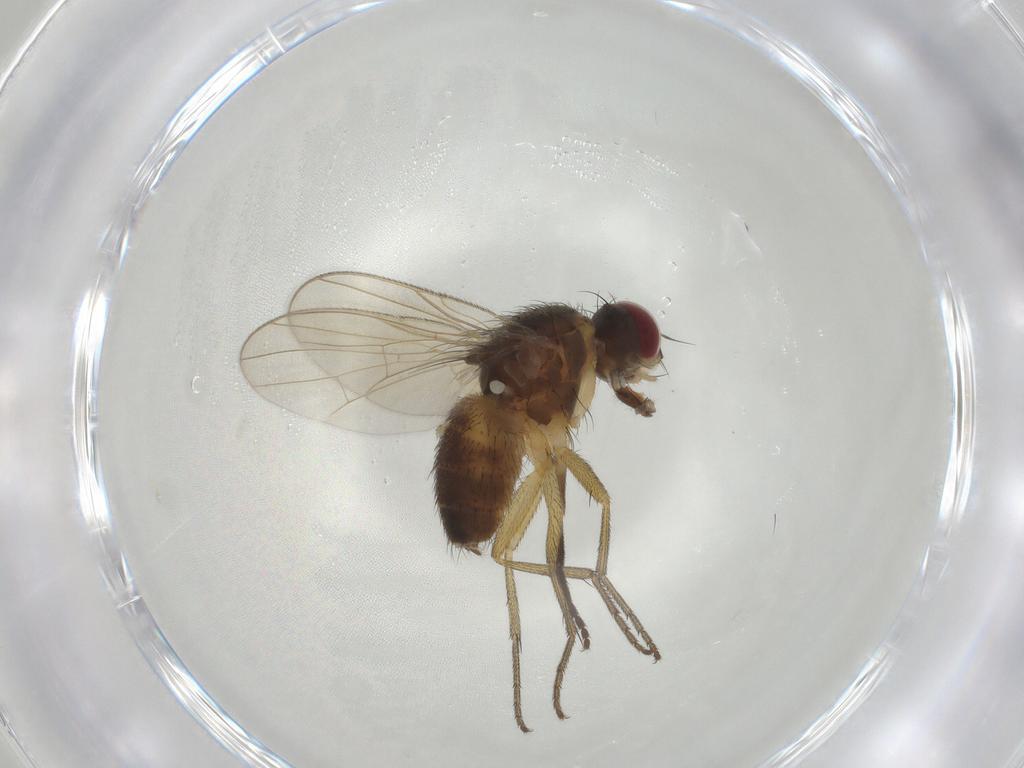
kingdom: Animalia
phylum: Arthropoda
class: Insecta
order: Diptera
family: Muscidae
